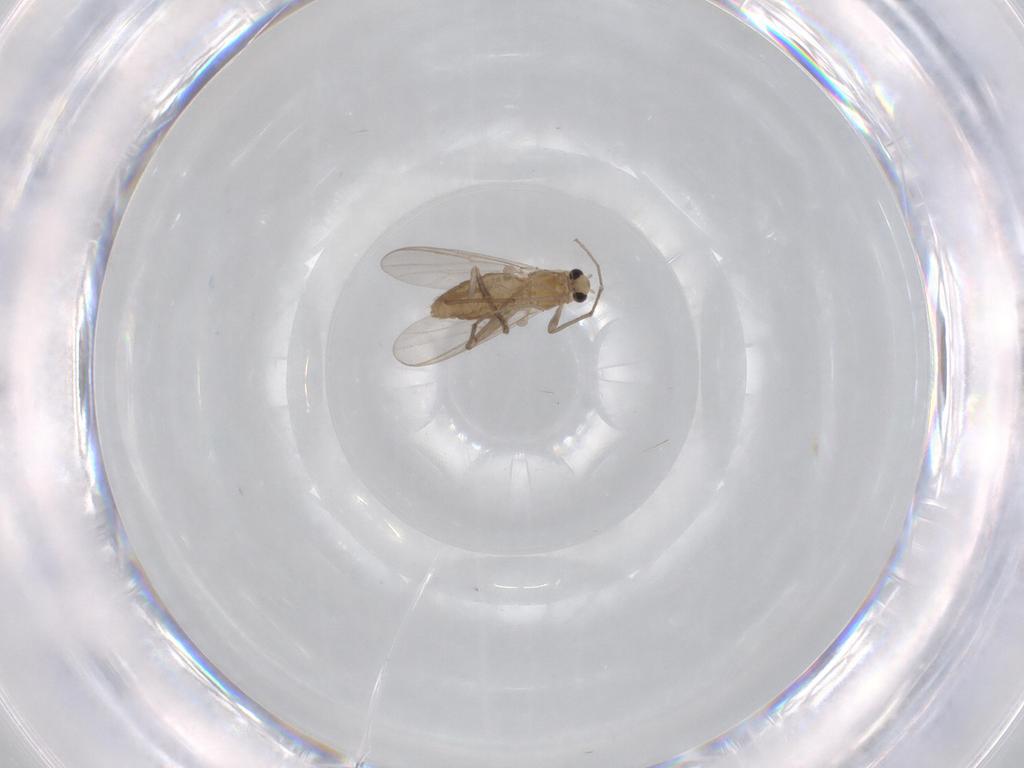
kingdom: Animalia
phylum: Arthropoda
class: Insecta
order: Diptera
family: Chironomidae
